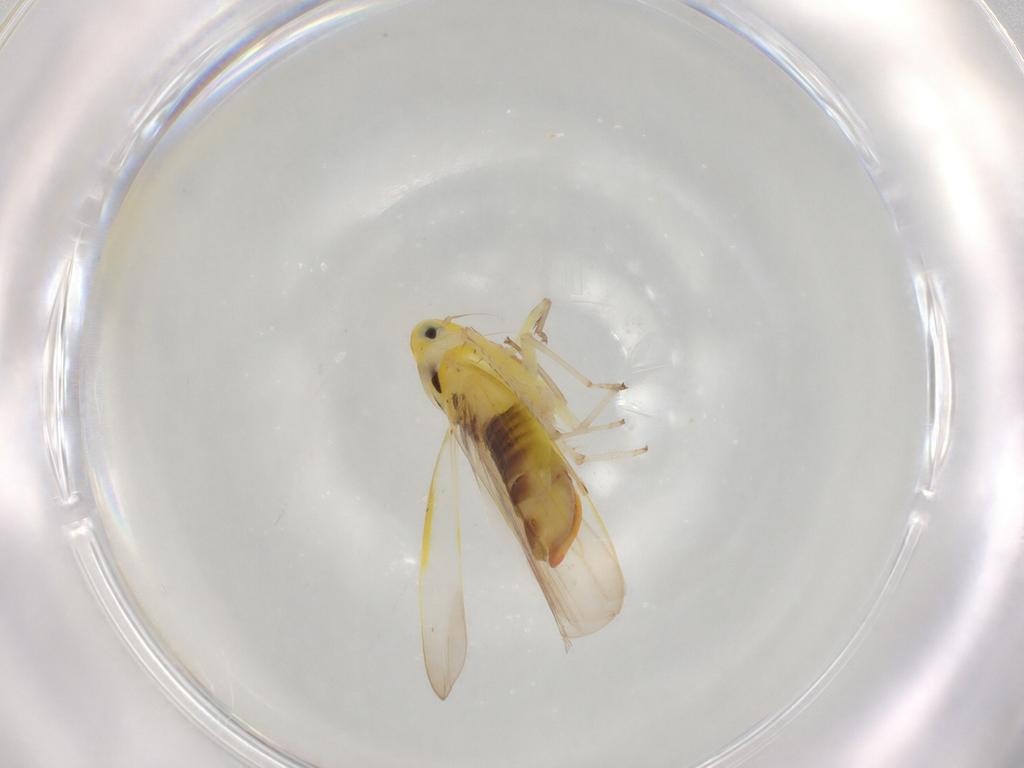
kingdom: Animalia
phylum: Arthropoda
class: Insecta
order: Hemiptera
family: Cicadellidae
